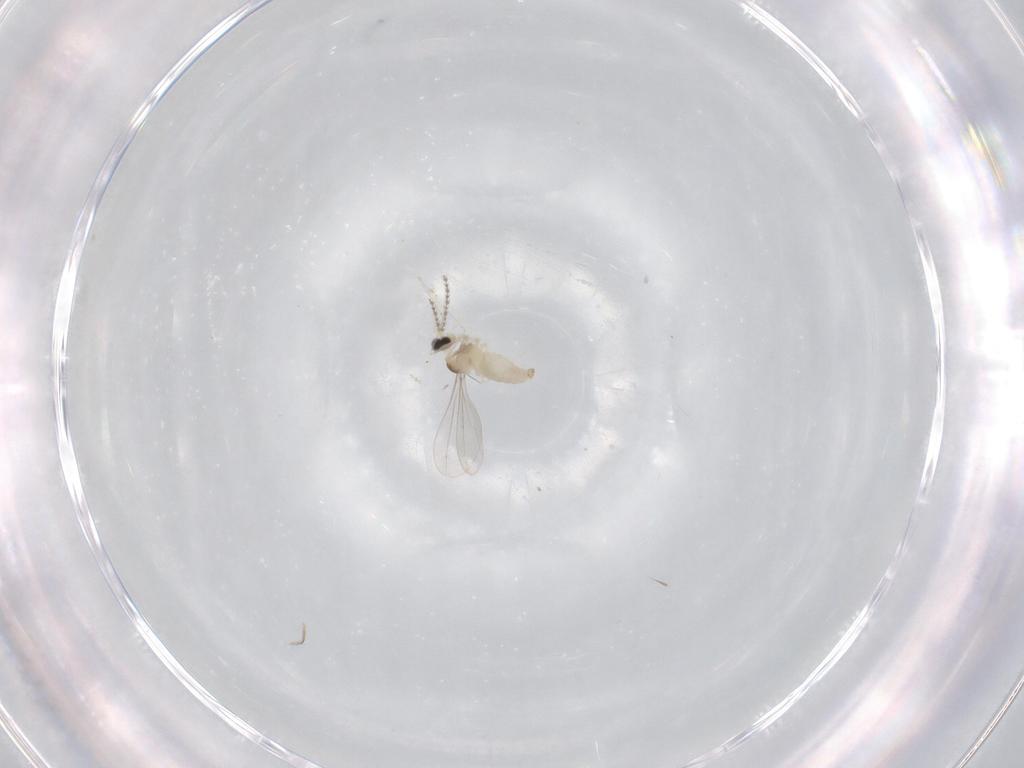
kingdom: Animalia
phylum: Arthropoda
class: Insecta
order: Diptera
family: Cecidomyiidae
